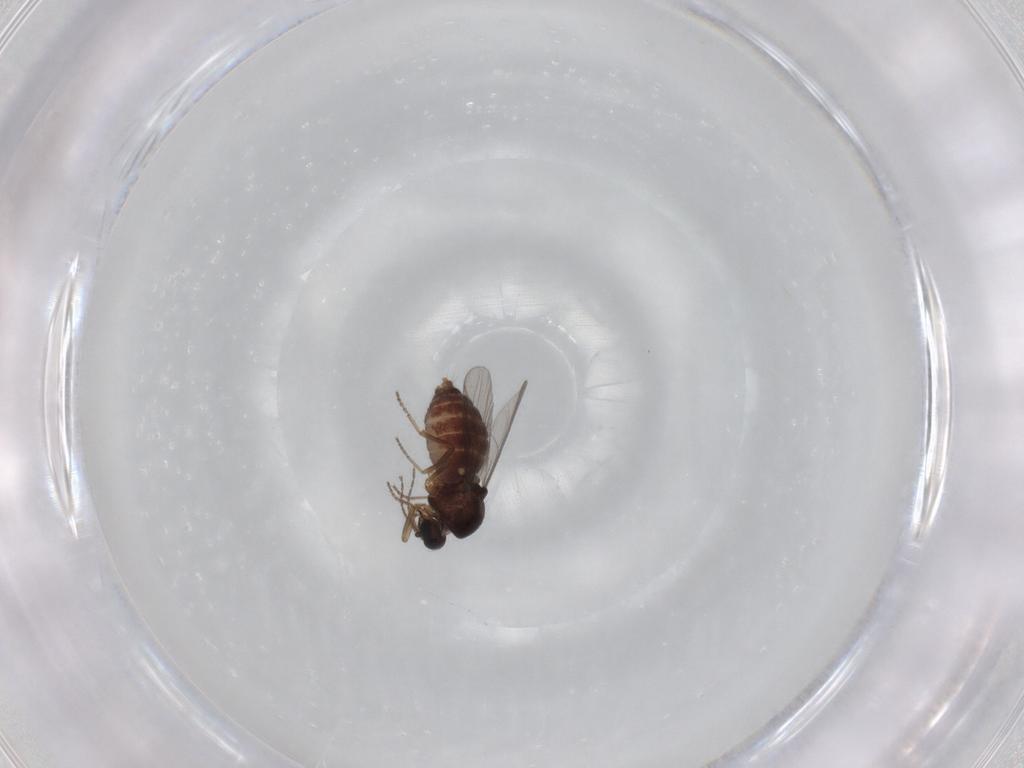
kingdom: Animalia
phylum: Arthropoda
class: Insecta
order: Diptera
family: Ceratopogonidae
